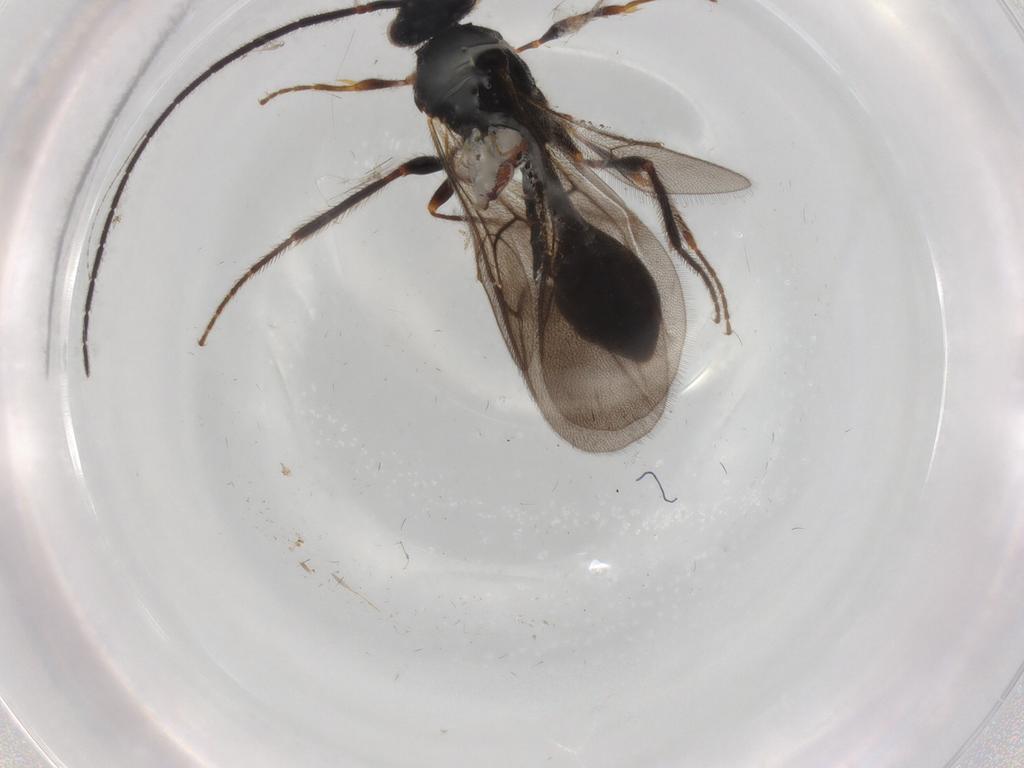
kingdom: Animalia
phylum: Arthropoda
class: Insecta
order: Hymenoptera
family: Diapriidae
